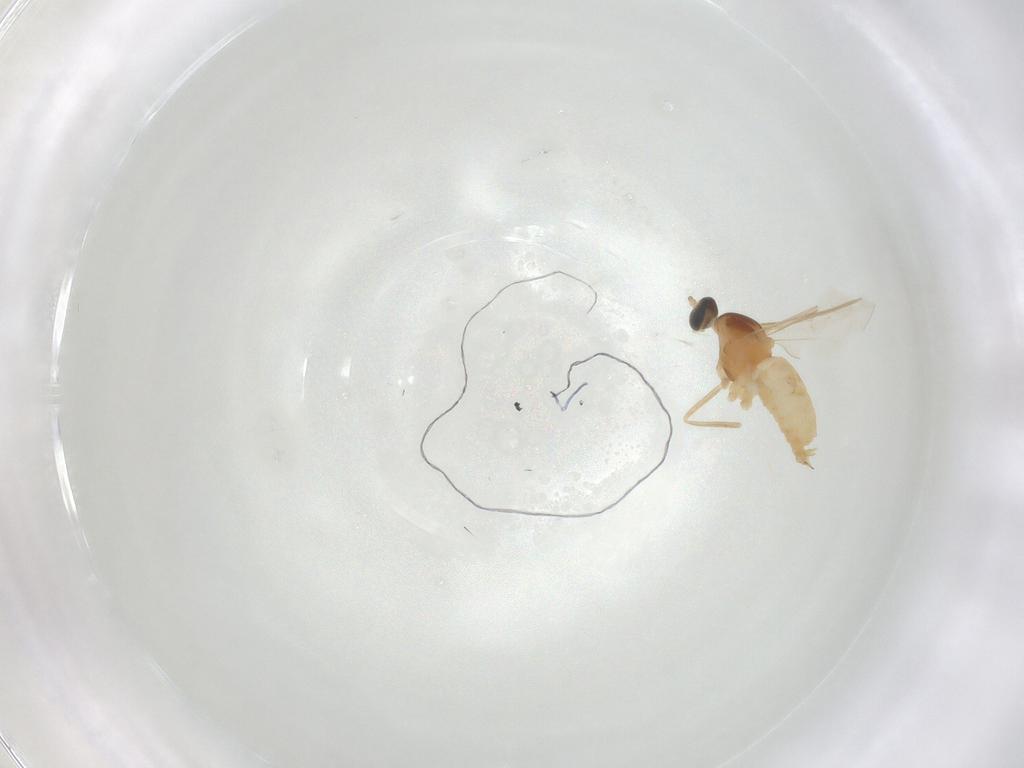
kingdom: Animalia
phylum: Arthropoda
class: Insecta
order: Diptera
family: Cecidomyiidae
